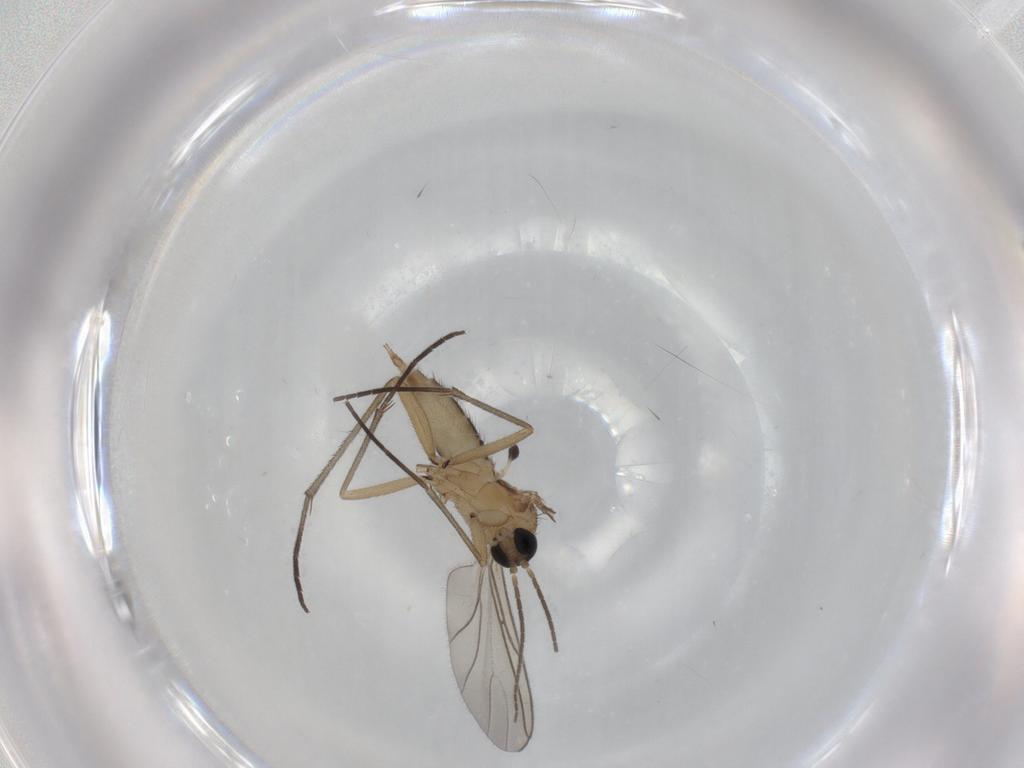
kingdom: Animalia
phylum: Arthropoda
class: Insecta
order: Diptera
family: Sciaridae
